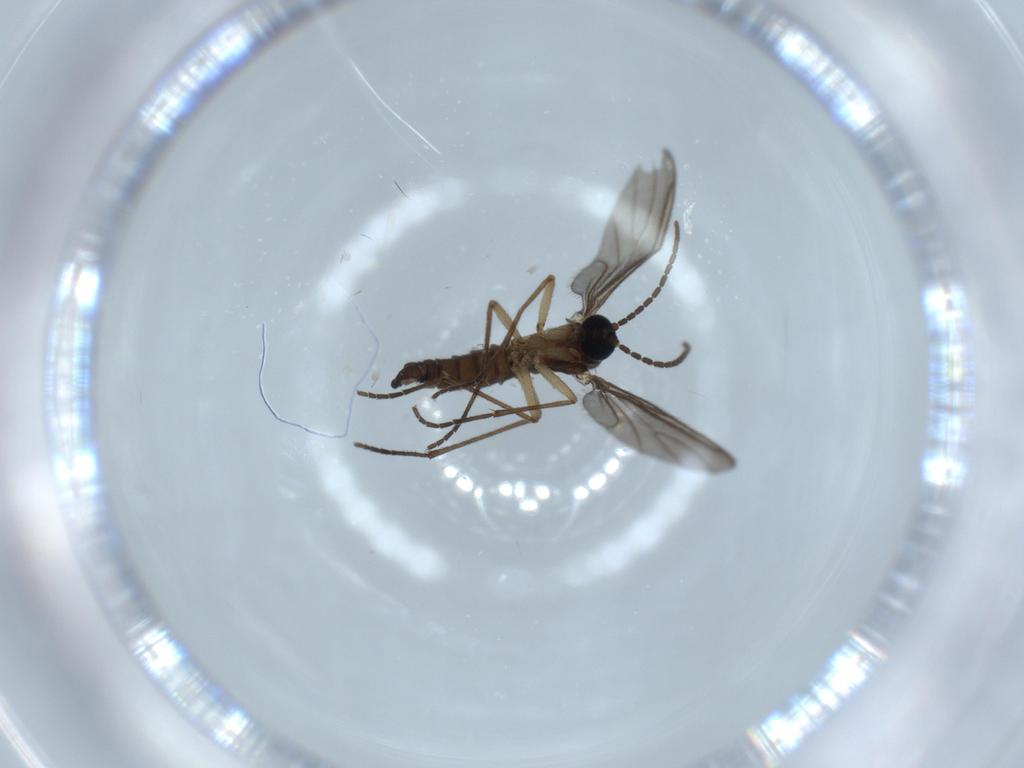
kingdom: Animalia
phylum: Arthropoda
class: Insecta
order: Diptera
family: Sciaridae
